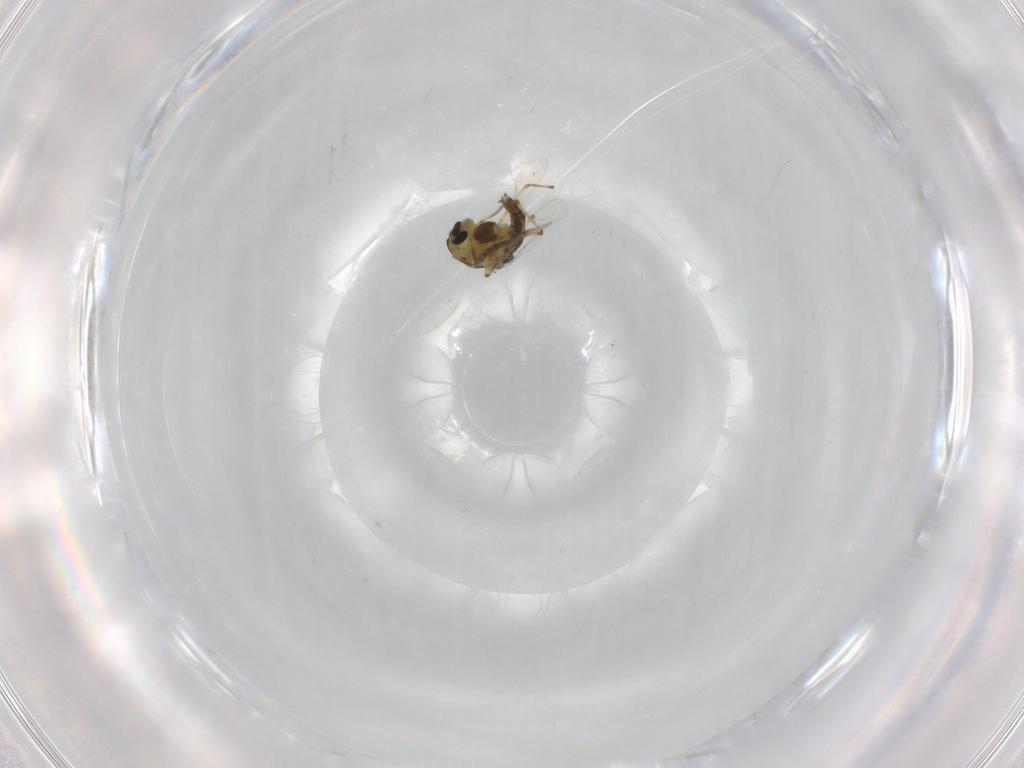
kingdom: Animalia
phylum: Arthropoda
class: Insecta
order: Diptera
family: Chironomidae
